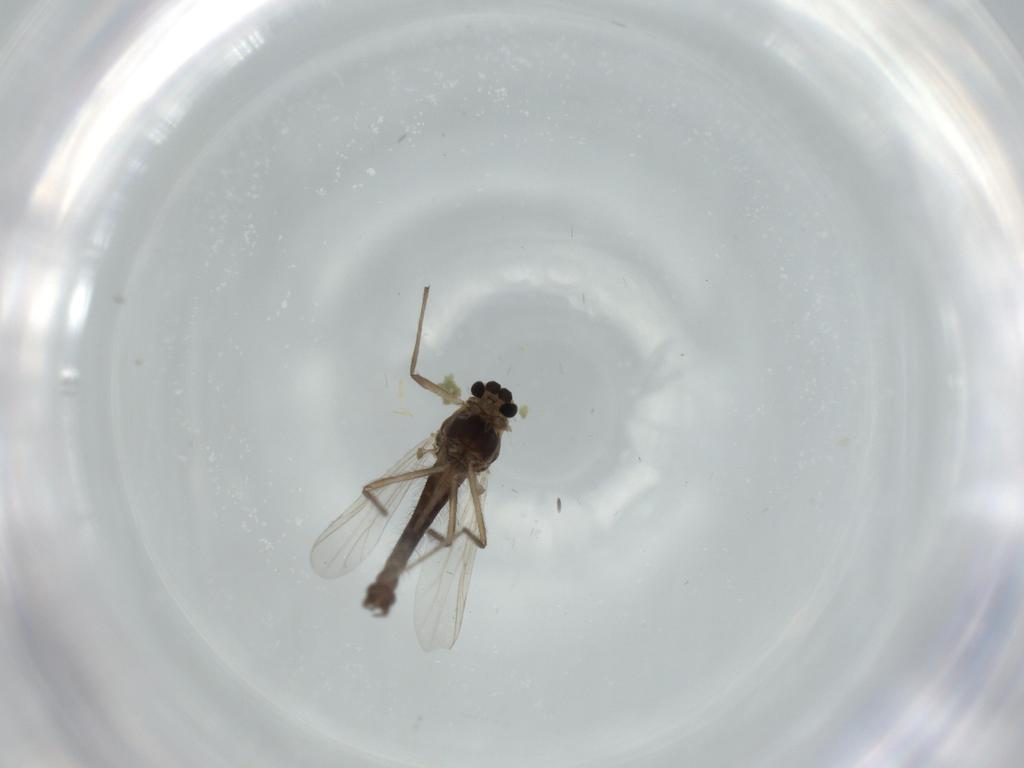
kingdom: Animalia
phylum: Arthropoda
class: Insecta
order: Diptera
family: Chironomidae
